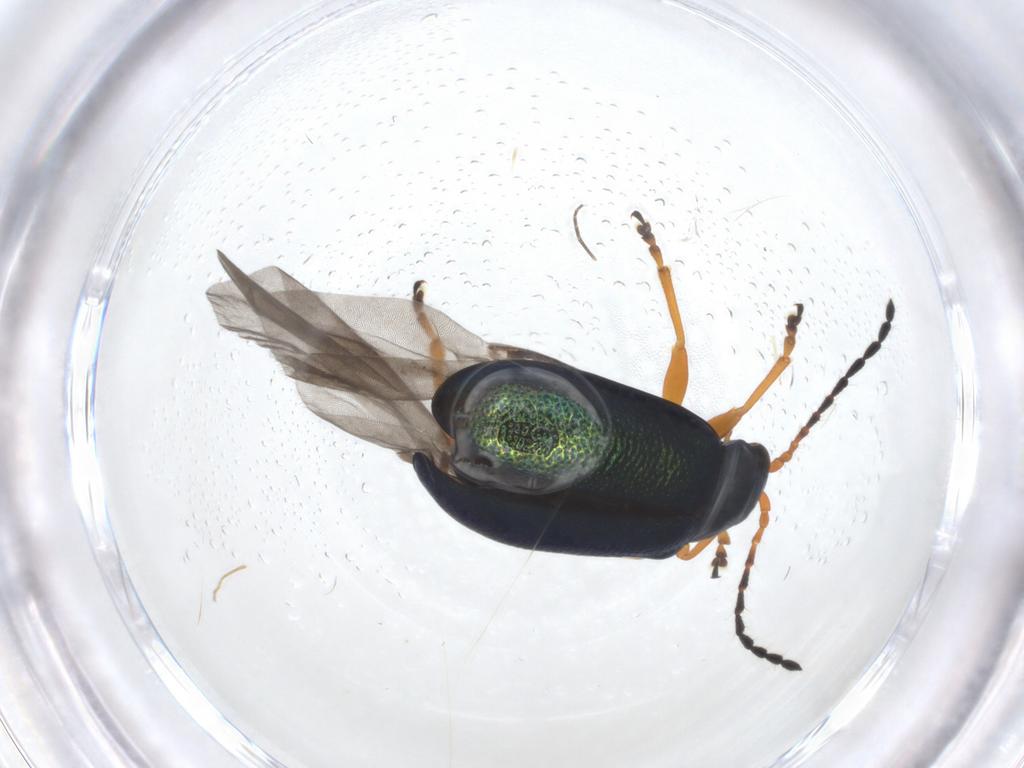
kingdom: Animalia
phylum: Arthropoda
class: Insecta
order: Coleoptera
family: Chrysomelidae
